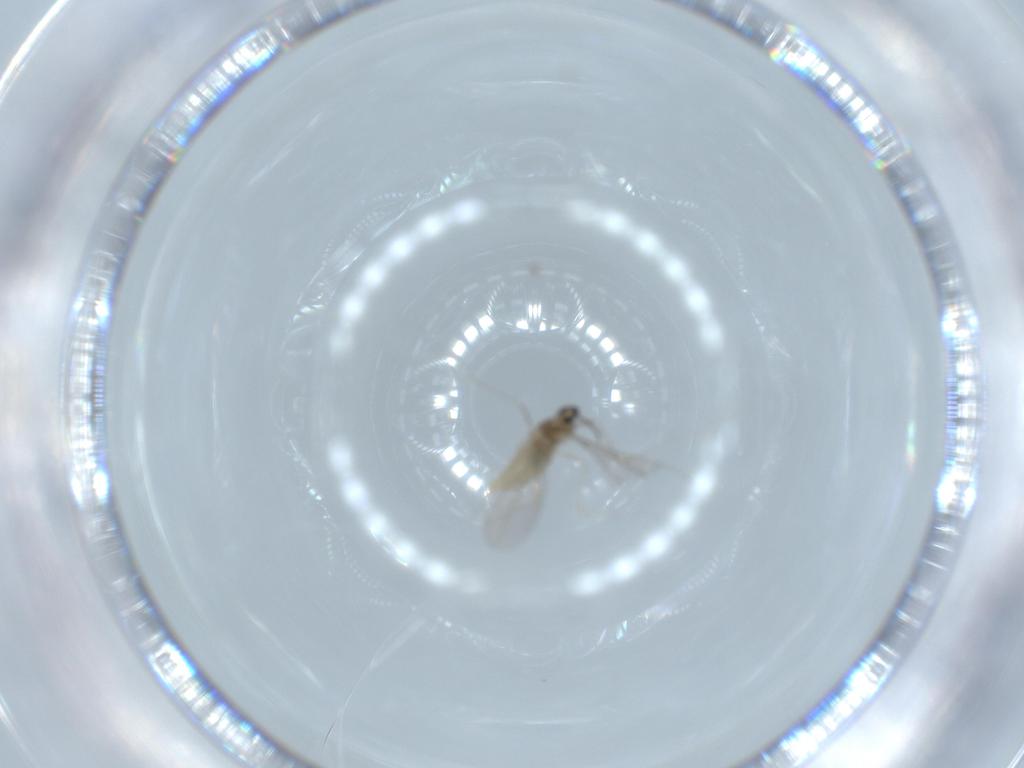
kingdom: Animalia
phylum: Arthropoda
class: Insecta
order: Diptera
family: Cecidomyiidae
